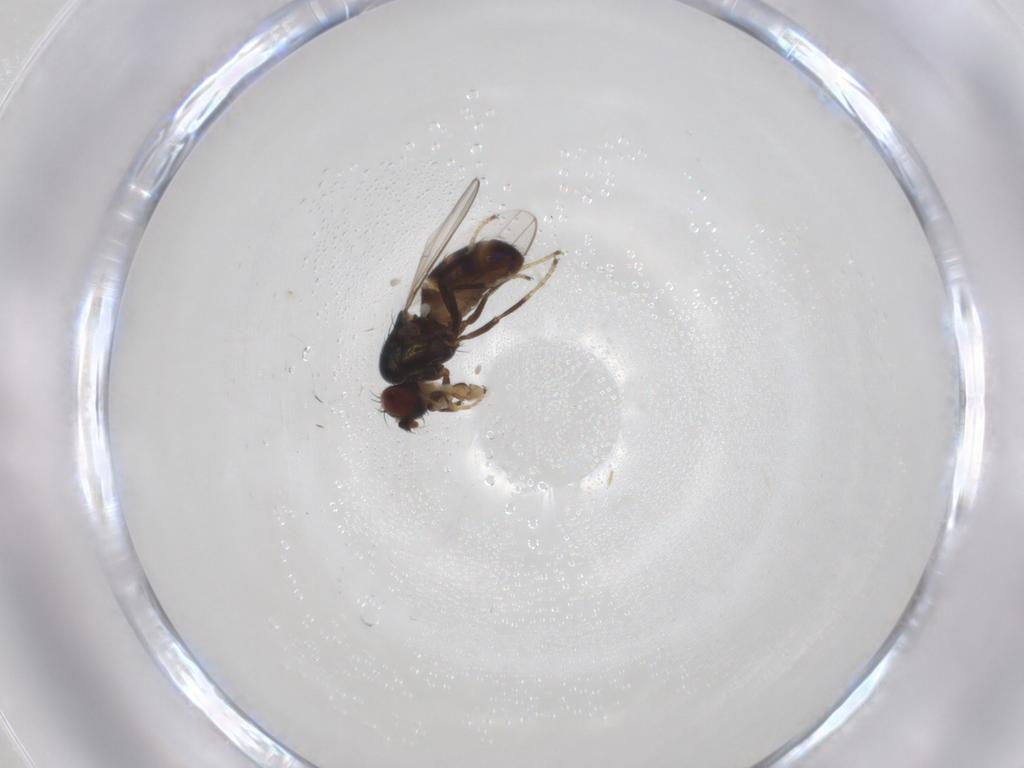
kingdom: Animalia
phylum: Arthropoda
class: Insecta
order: Diptera
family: Ephydridae
